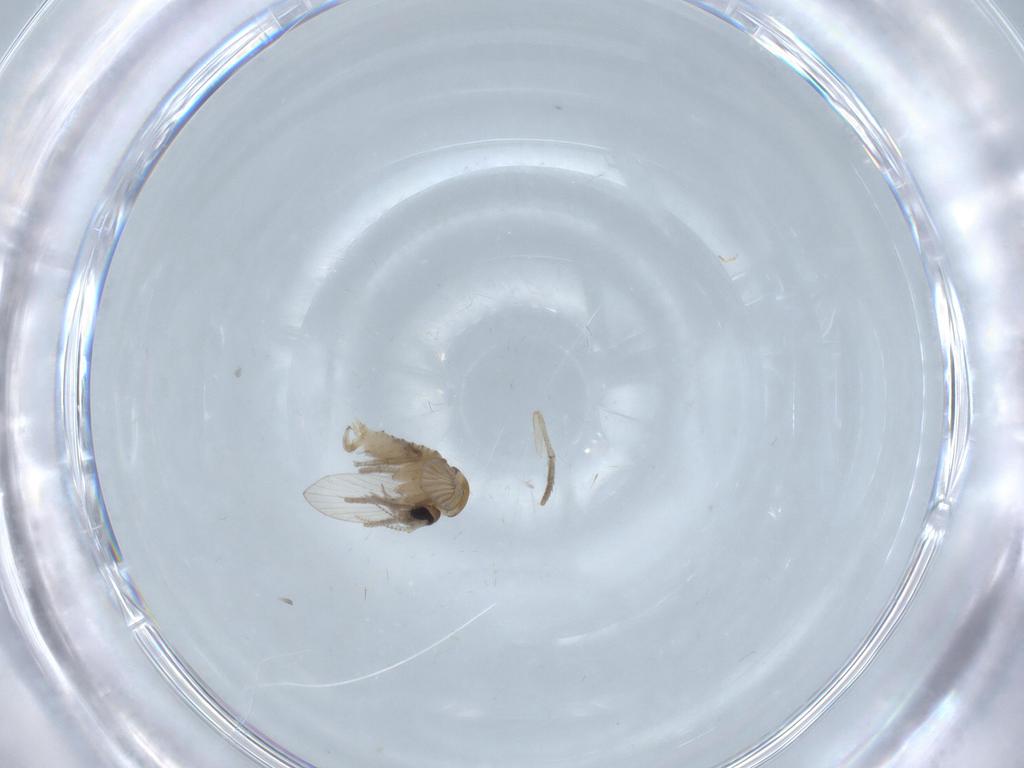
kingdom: Animalia
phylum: Arthropoda
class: Insecta
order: Diptera
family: Psychodidae
